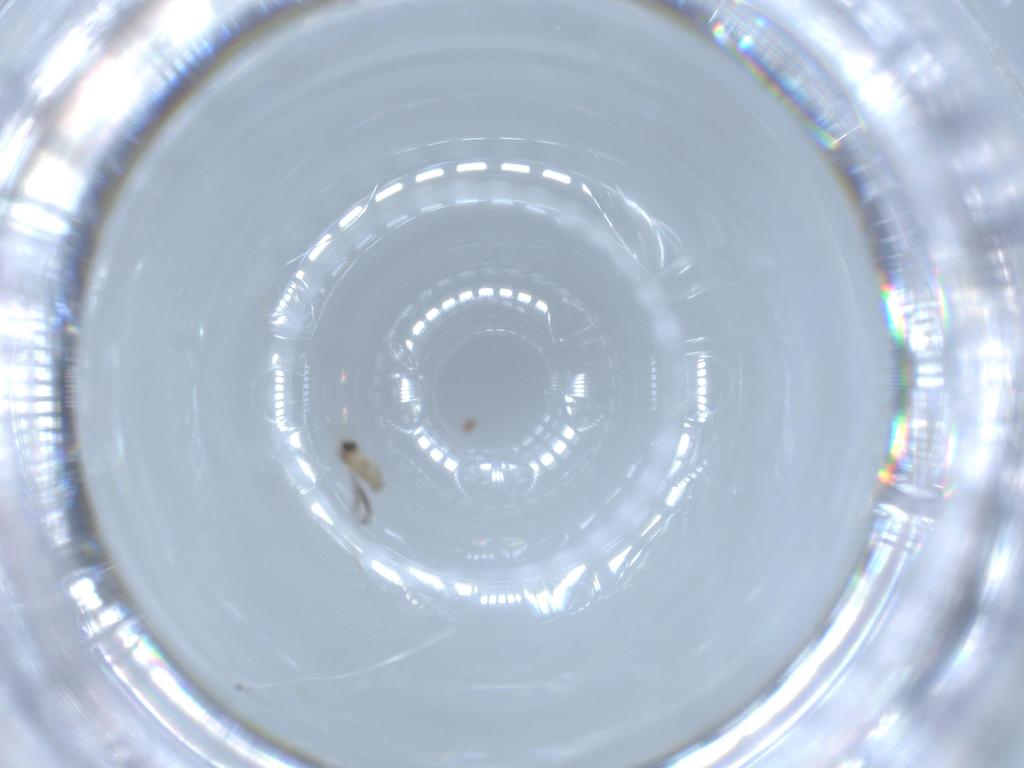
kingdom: Animalia
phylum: Arthropoda
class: Insecta
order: Diptera
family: Cecidomyiidae
